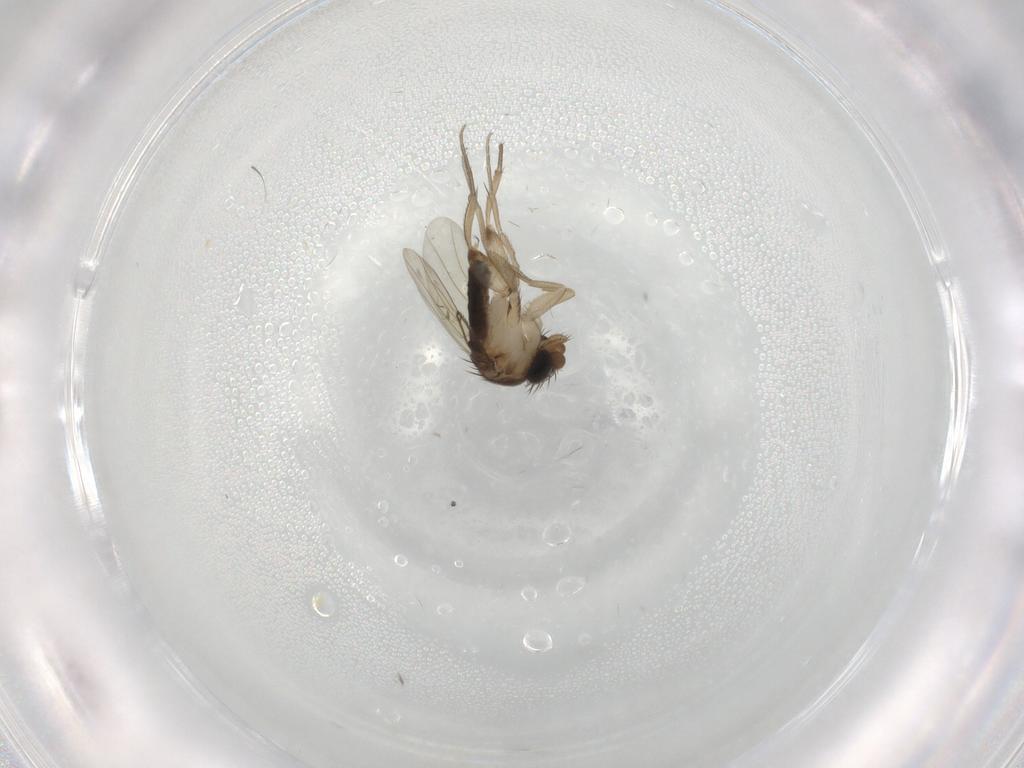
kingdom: Animalia
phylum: Arthropoda
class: Insecta
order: Diptera
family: Phoridae
